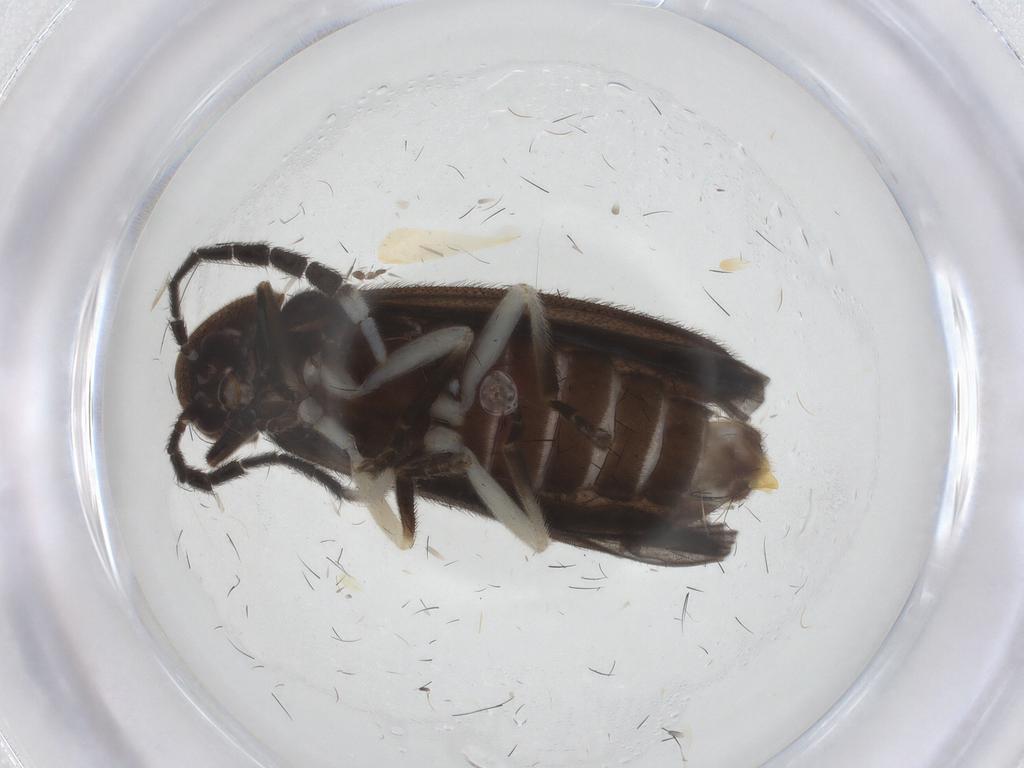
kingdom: Animalia
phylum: Arthropoda
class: Insecta
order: Coleoptera
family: Lampyridae
